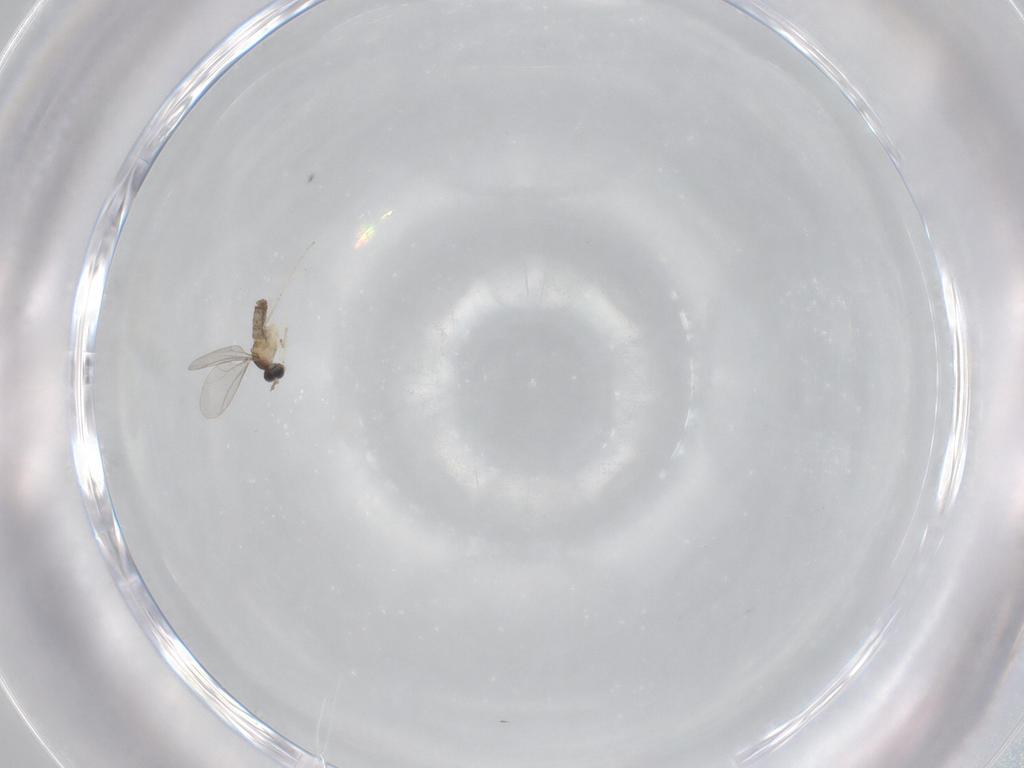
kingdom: Animalia
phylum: Arthropoda
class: Insecta
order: Diptera
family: Cecidomyiidae
